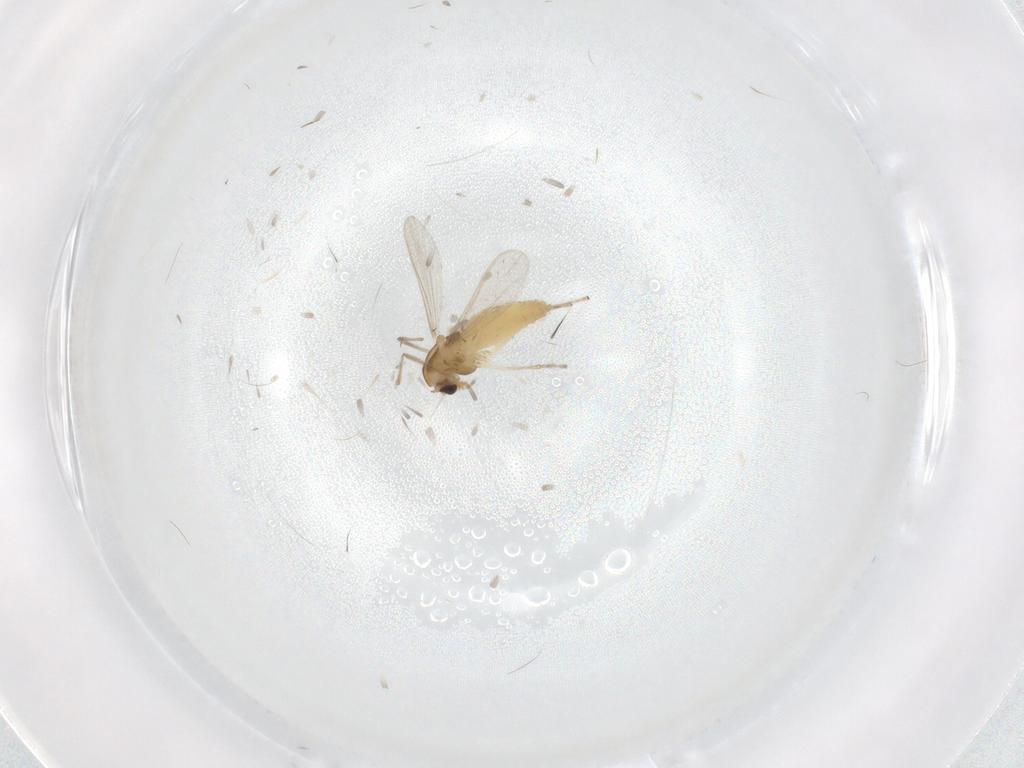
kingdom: Animalia
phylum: Arthropoda
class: Insecta
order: Diptera
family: Chironomidae
